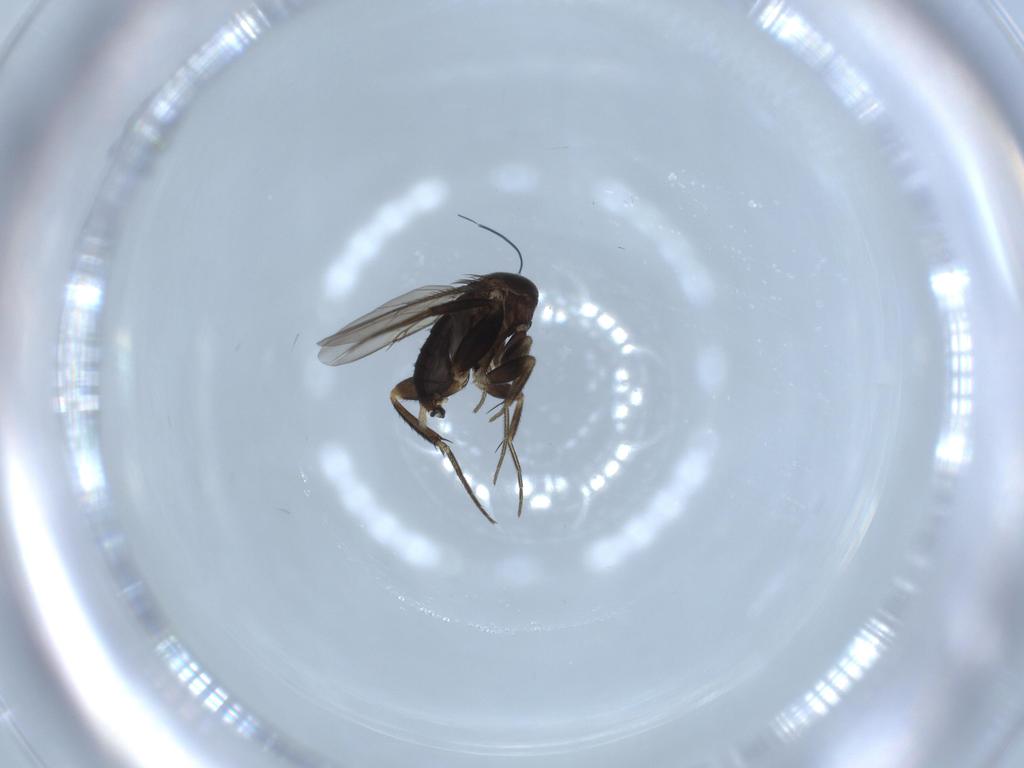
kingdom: Animalia
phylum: Arthropoda
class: Insecta
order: Diptera
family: Phoridae
